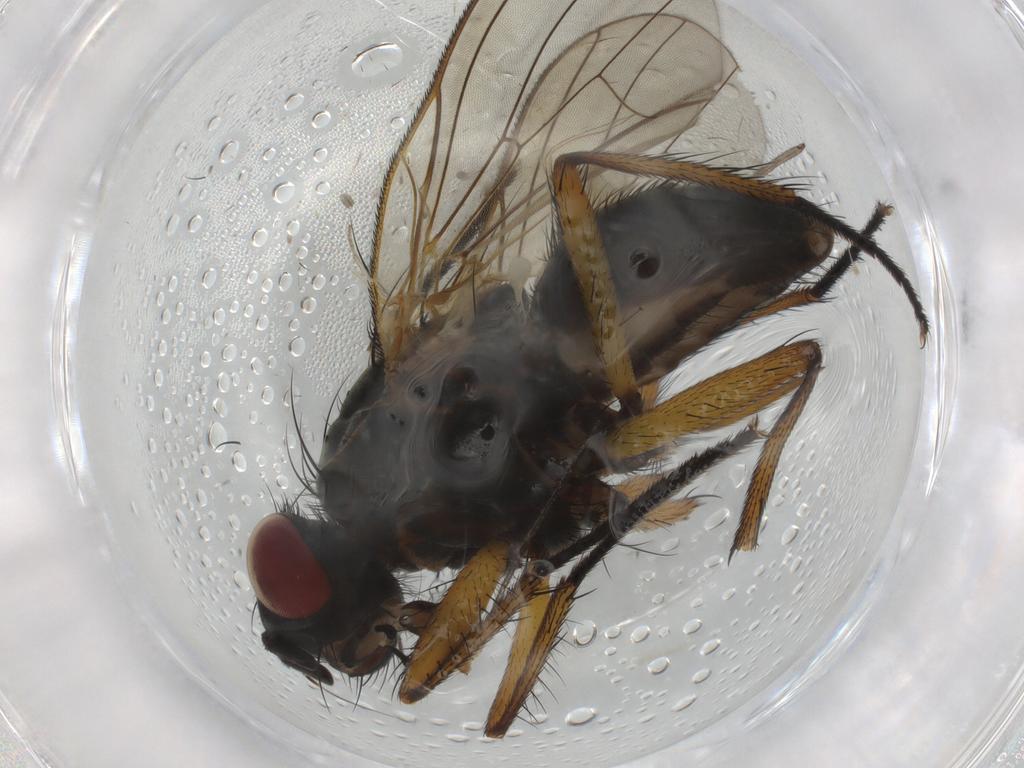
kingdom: Animalia
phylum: Arthropoda
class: Insecta
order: Diptera
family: Anthomyiidae
